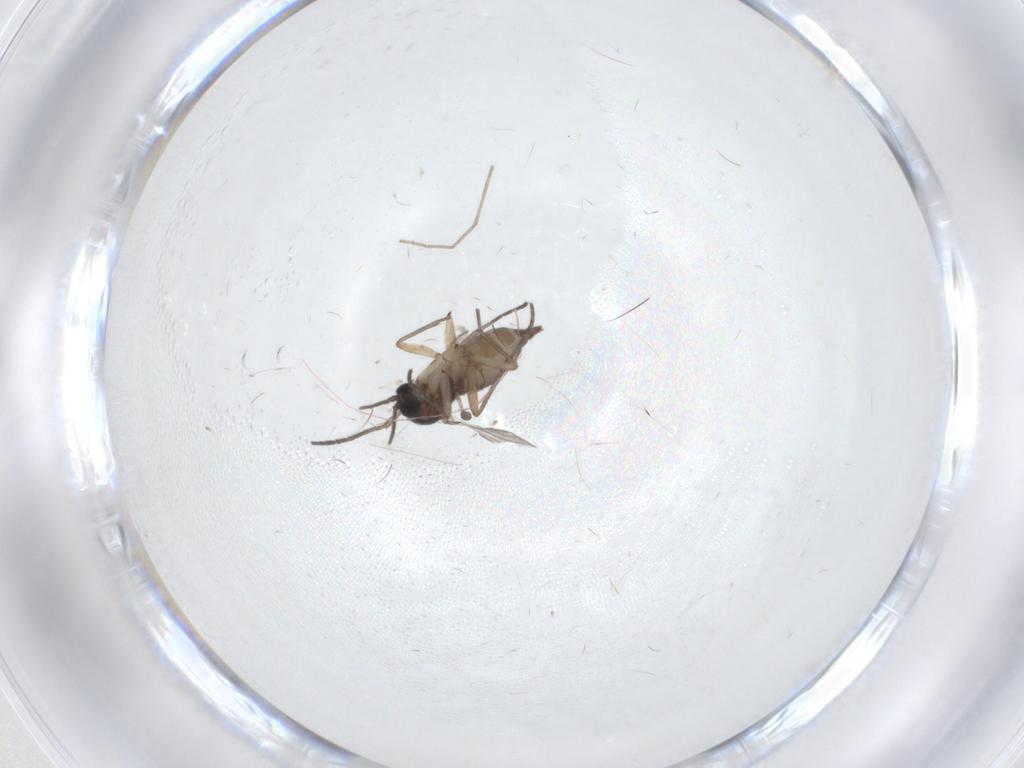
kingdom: Animalia
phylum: Arthropoda
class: Insecta
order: Diptera
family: Sciaridae
